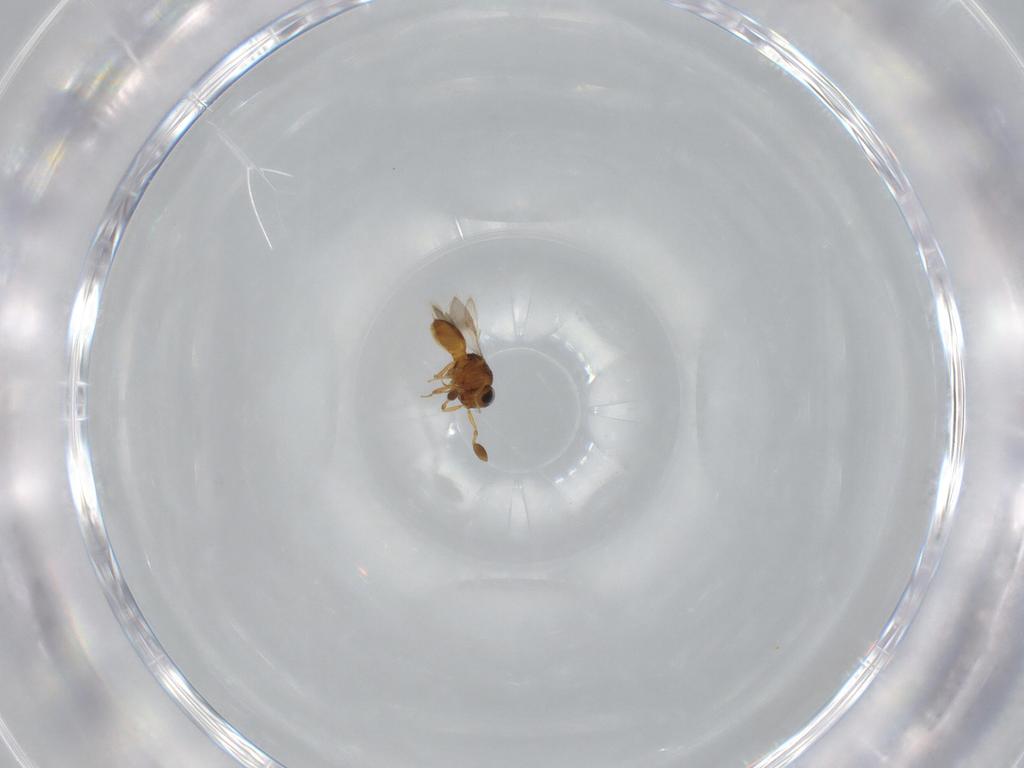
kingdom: Animalia
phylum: Arthropoda
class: Insecta
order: Hymenoptera
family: Scelionidae
